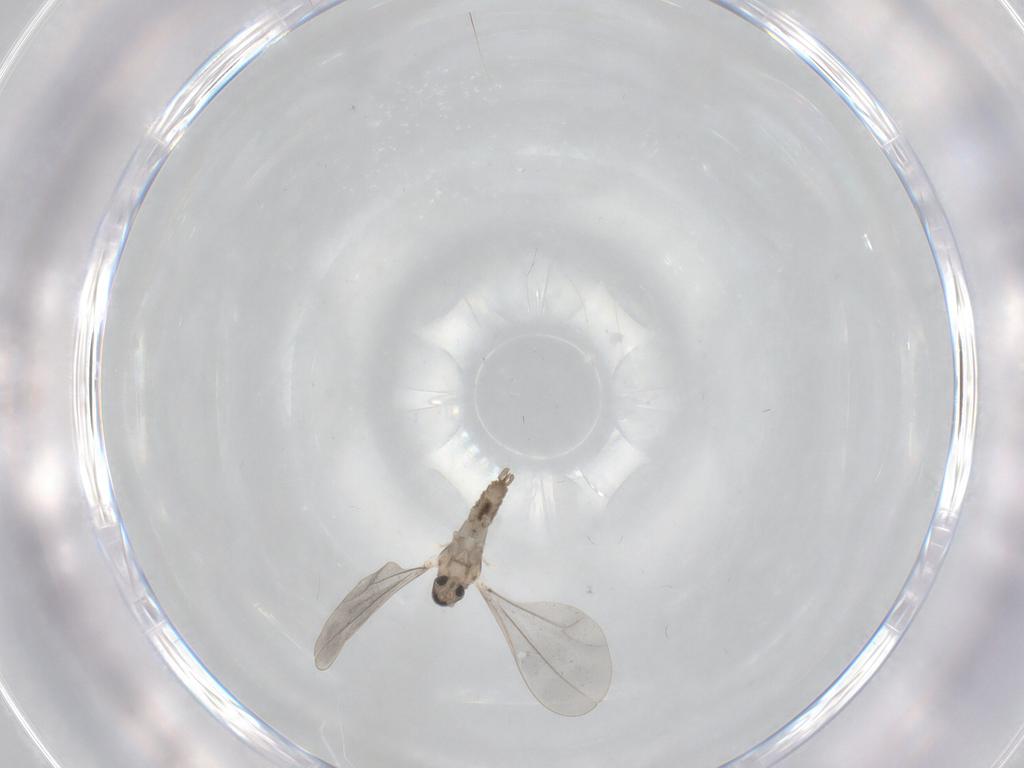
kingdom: Animalia
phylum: Arthropoda
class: Insecta
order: Diptera
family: Cecidomyiidae
